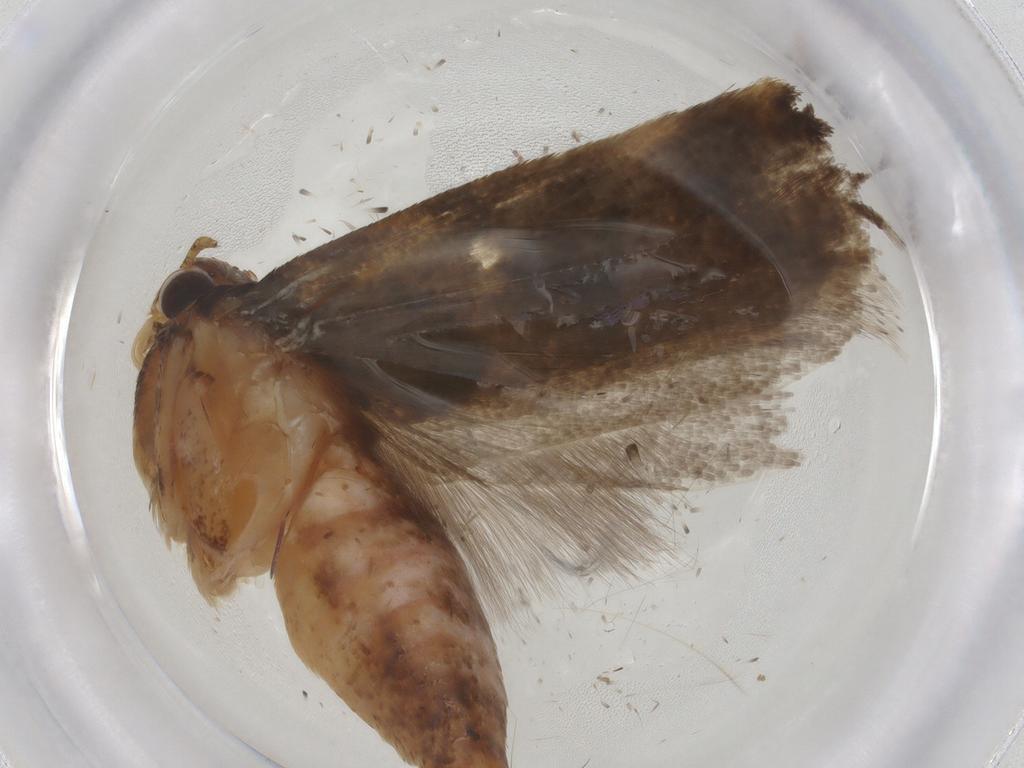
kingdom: Animalia
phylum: Arthropoda
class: Insecta
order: Lepidoptera
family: Gelechiidae
